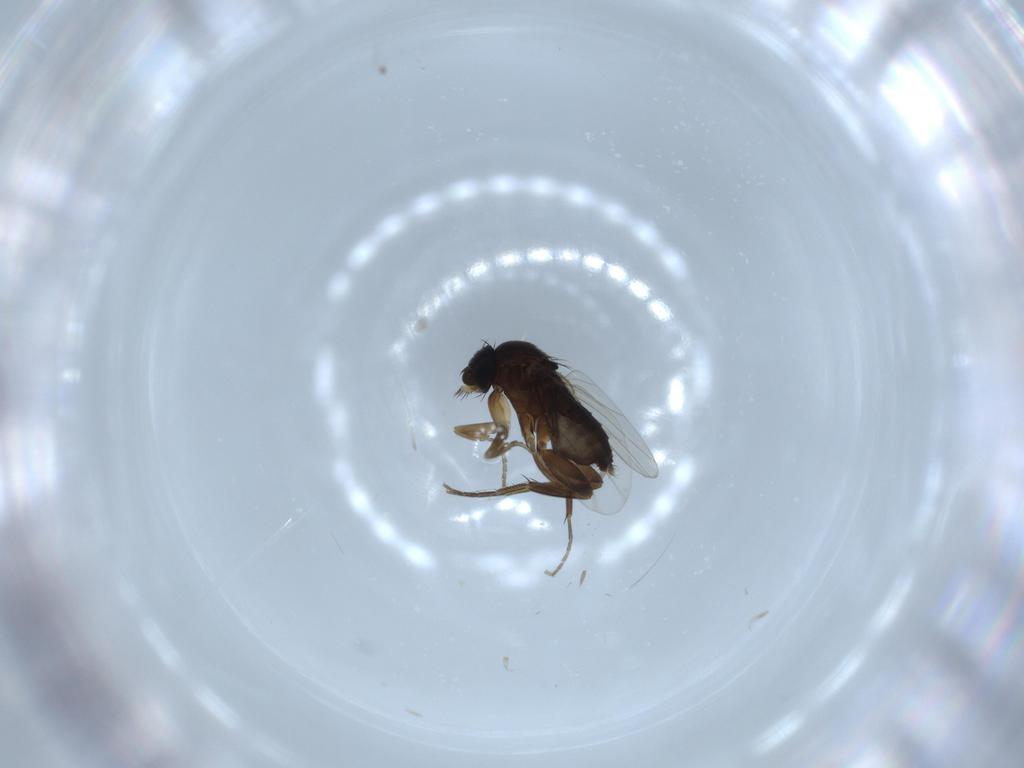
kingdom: Animalia
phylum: Arthropoda
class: Insecta
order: Diptera
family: Phoridae
